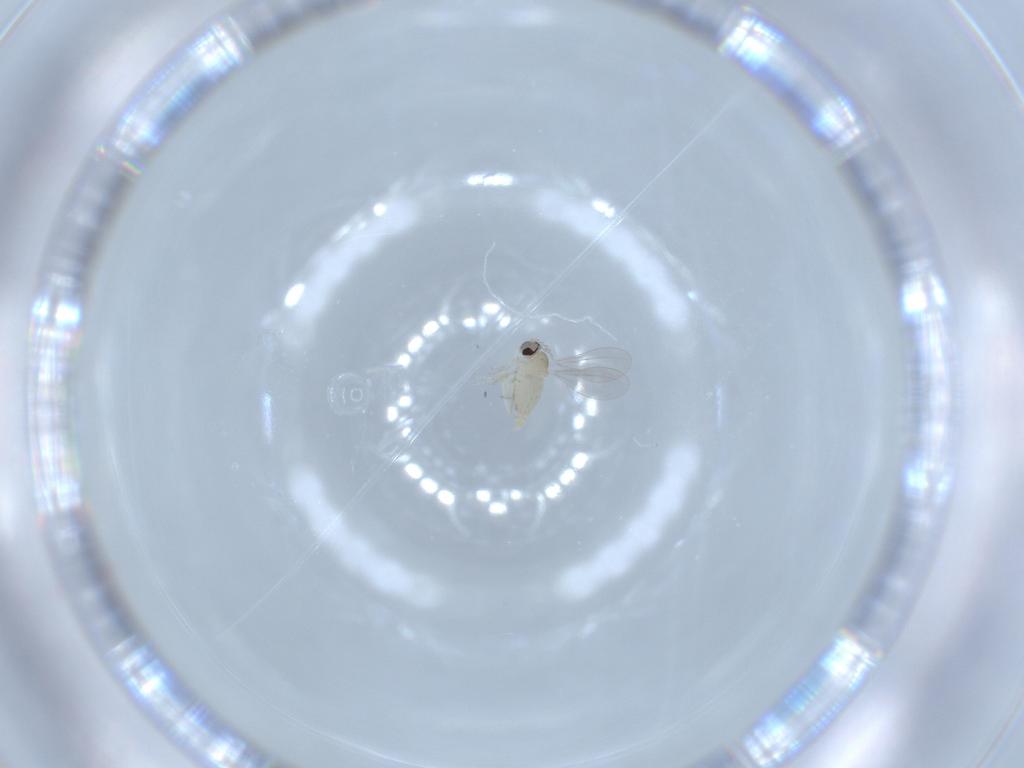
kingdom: Animalia
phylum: Arthropoda
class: Insecta
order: Diptera
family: Cecidomyiidae
